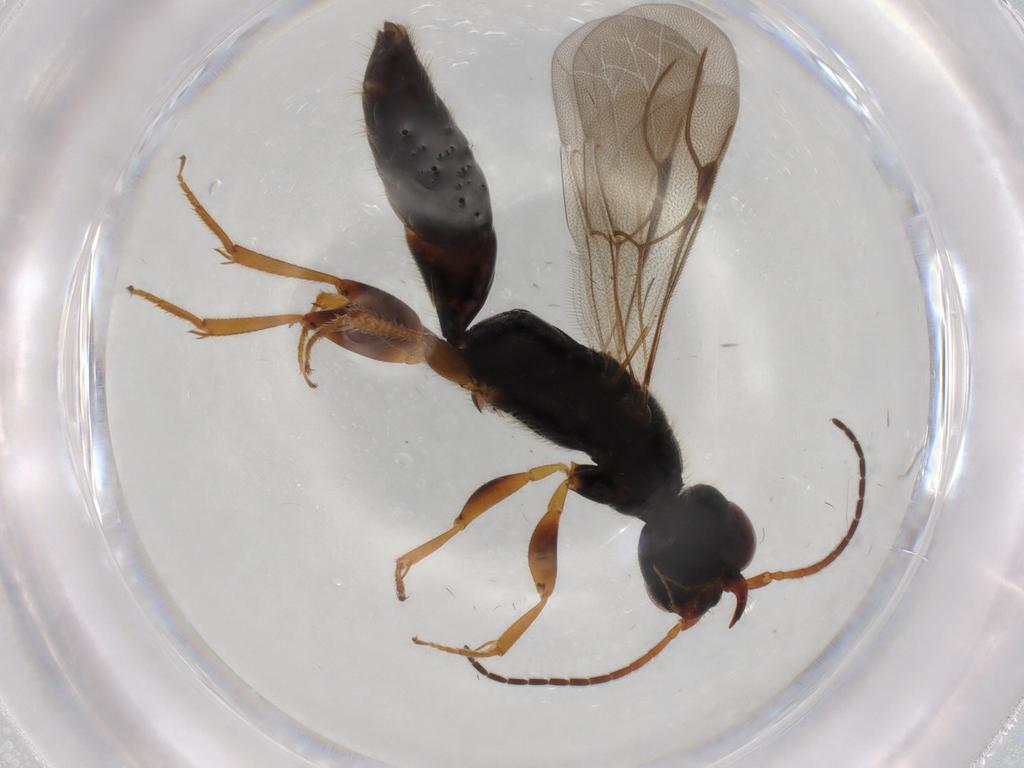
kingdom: Animalia
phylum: Arthropoda
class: Insecta
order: Hymenoptera
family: Bethylidae
